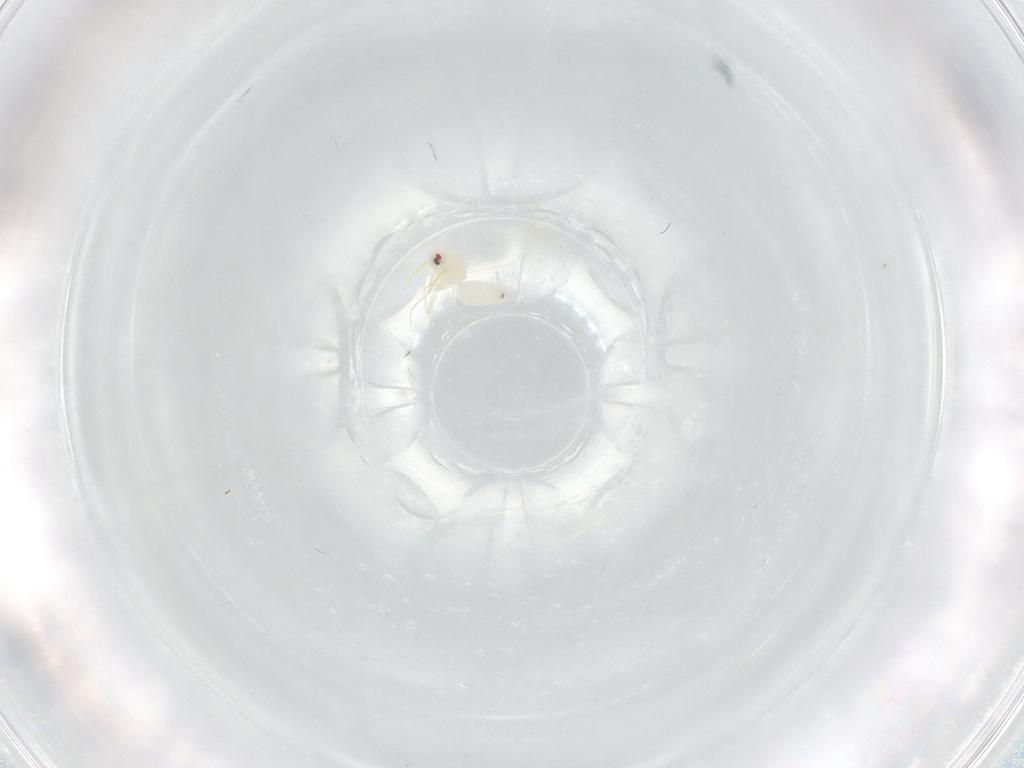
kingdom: Animalia
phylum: Arthropoda
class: Insecta
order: Hemiptera
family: Aleyrodidae
